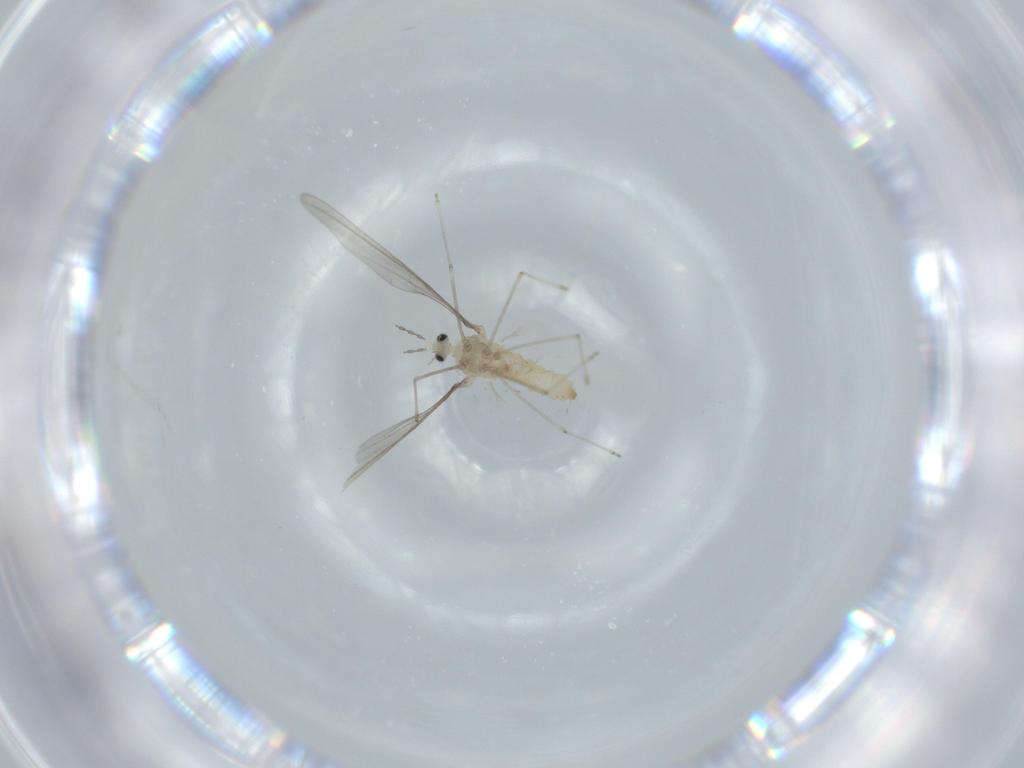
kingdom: Animalia
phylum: Arthropoda
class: Insecta
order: Diptera
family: Cecidomyiidae
